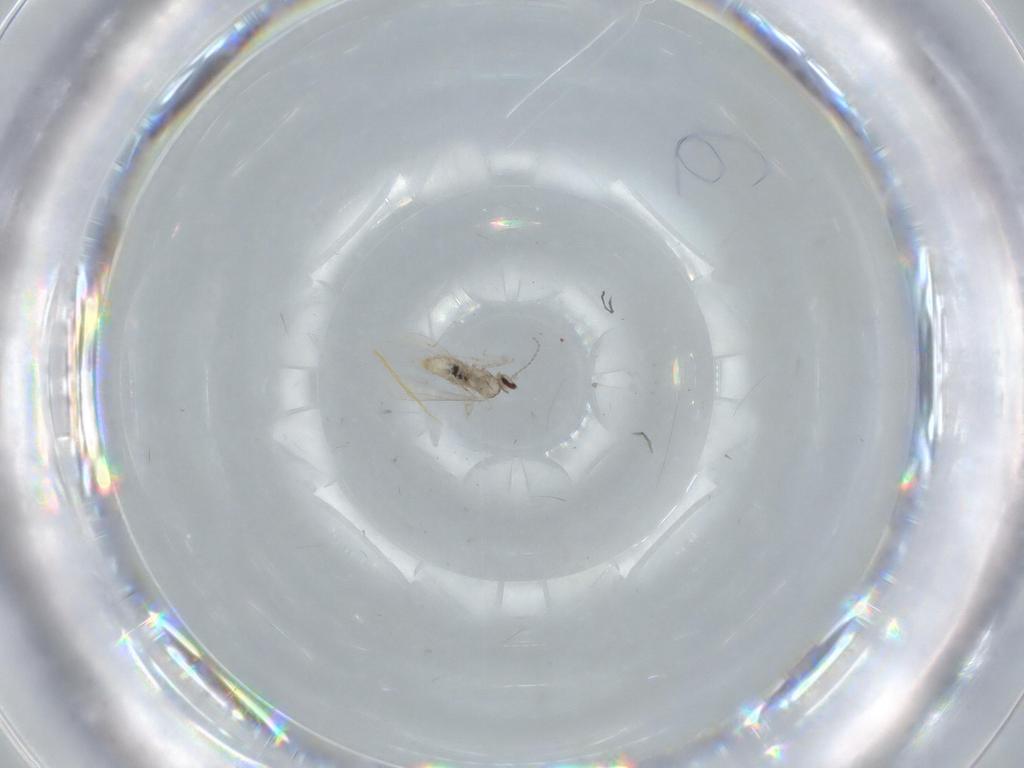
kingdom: Animalia
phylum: Arthropoda
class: Insecta
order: Diptera
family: Cecidomyiidae
